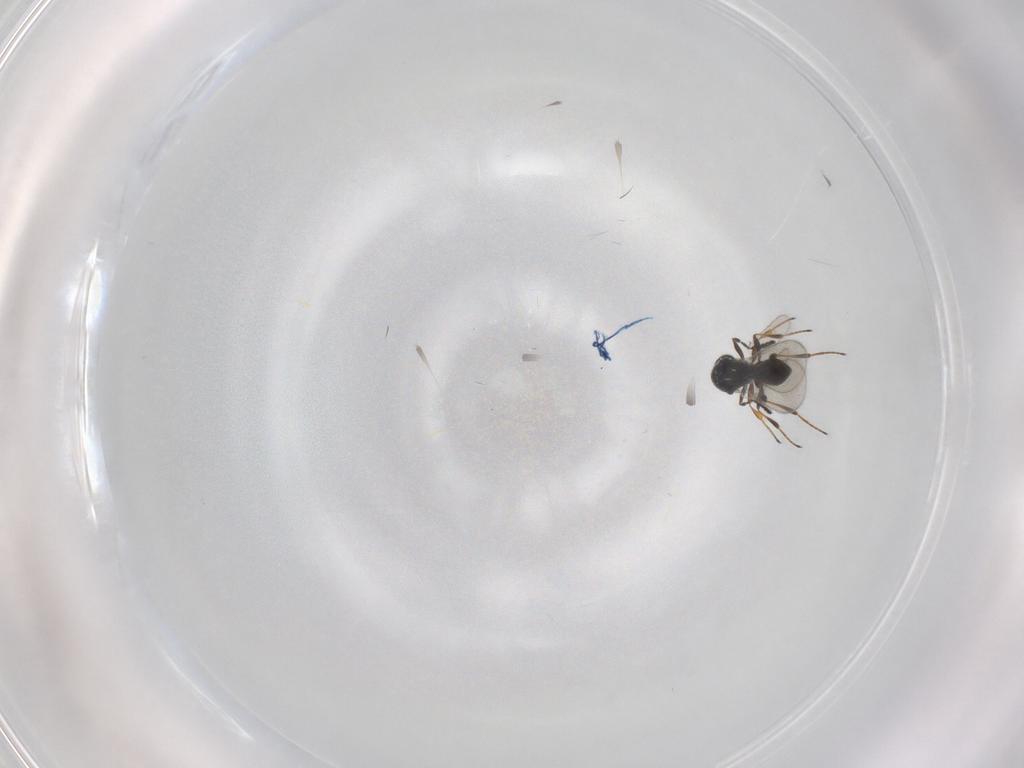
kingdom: Animalia
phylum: Arthropoda
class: Insecta
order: Hymenoptera
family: Platygastridae
